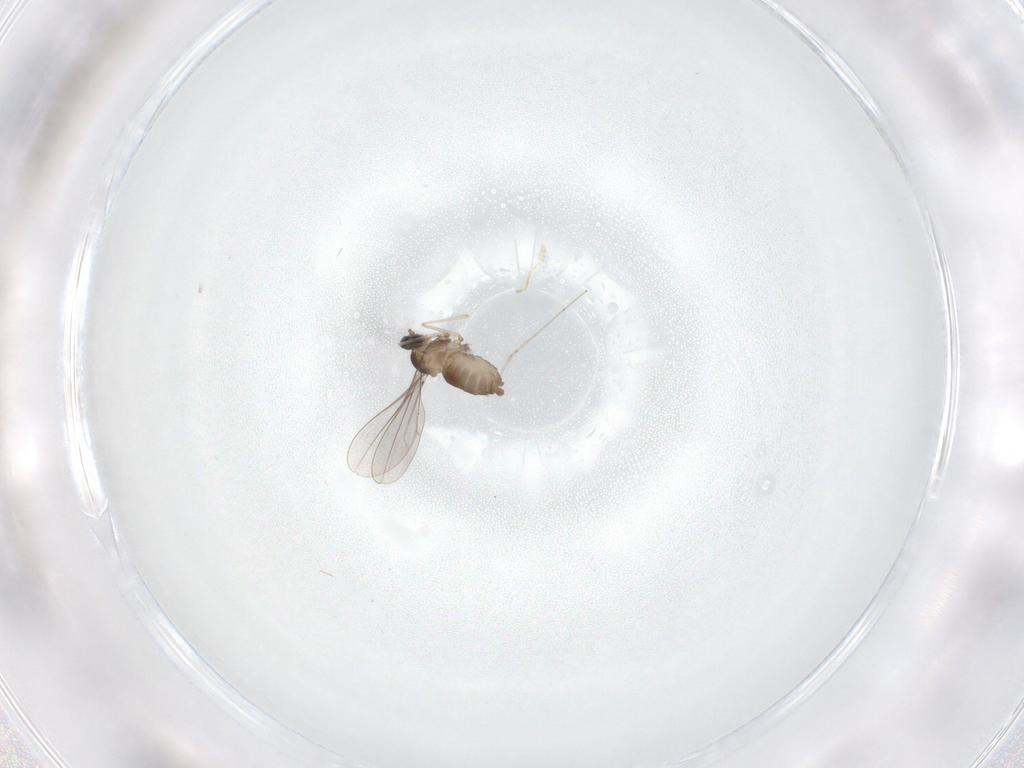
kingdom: Animalia
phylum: Arthropoda
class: Insecta
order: Diptera
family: Cecidomyiidae
